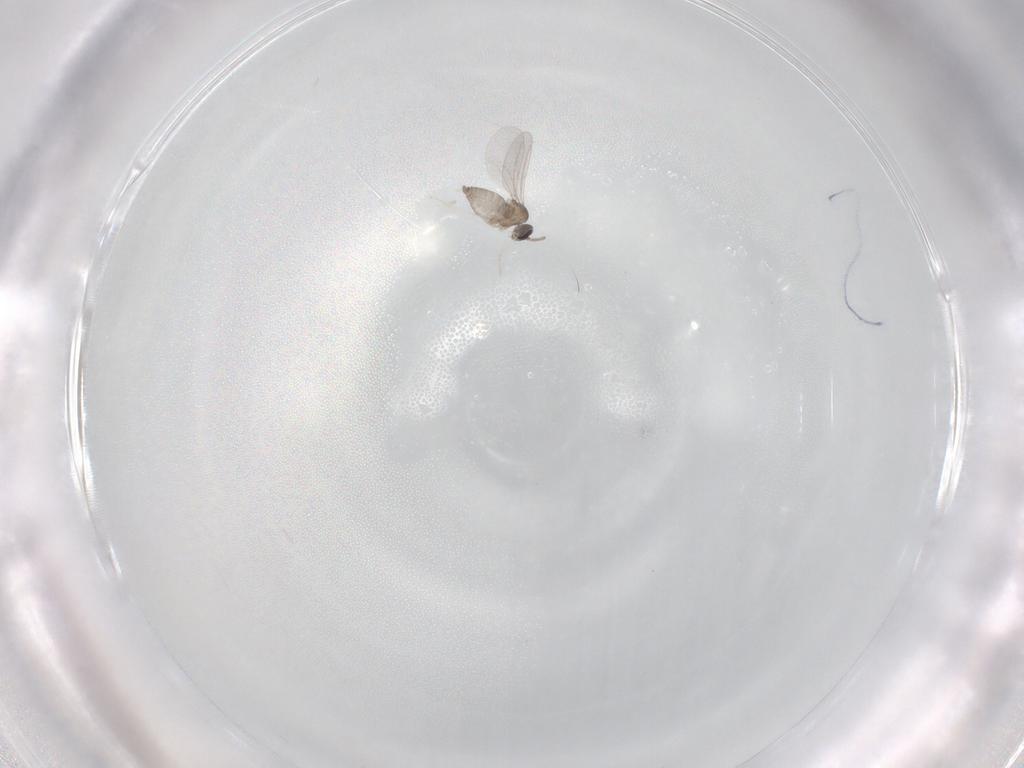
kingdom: Animalia
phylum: Arthropoda
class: Insecta
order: Diptera
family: Cecidomyiidae
